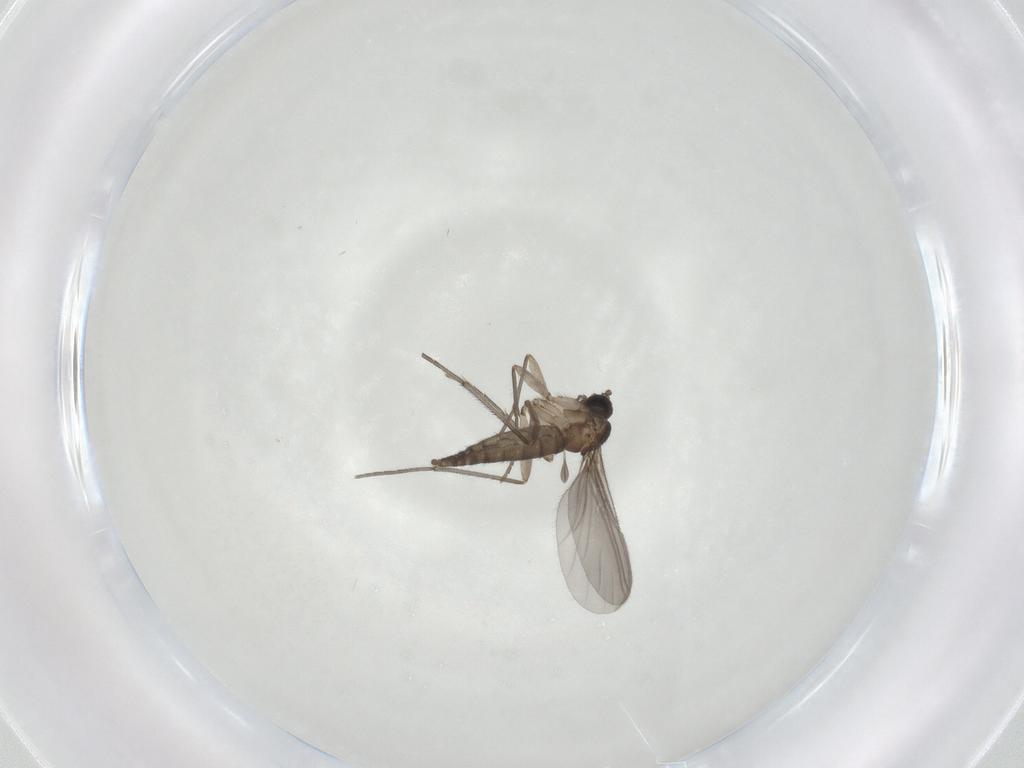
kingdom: Animalia
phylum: Arthropoda
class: Insecta
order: Diptera
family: Sciaridae
